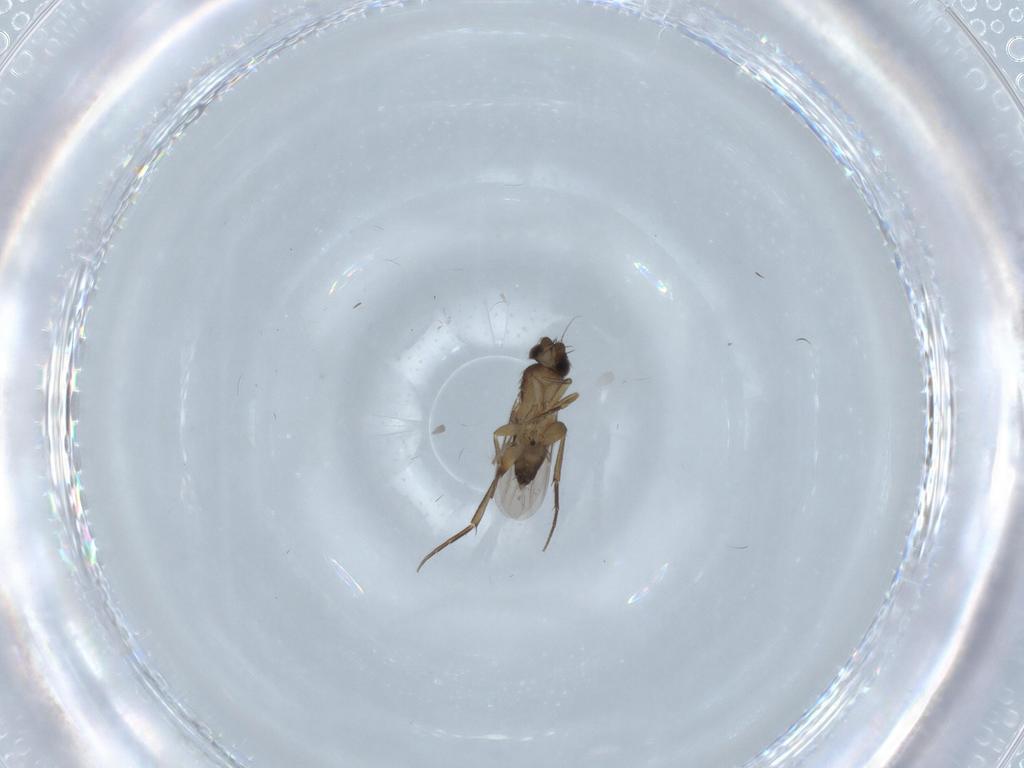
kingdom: Animalia
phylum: Arthropoda
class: Insecta
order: Diptera
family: Phoridae
